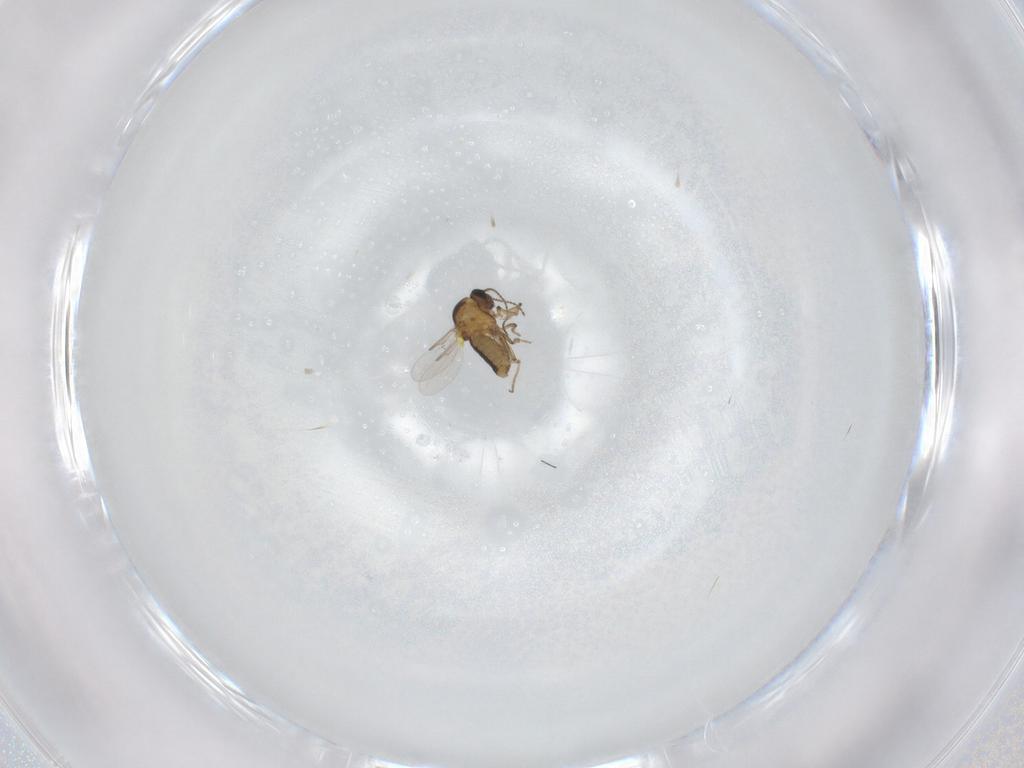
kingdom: Animalia
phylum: Arthropoda
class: Insecta
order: Diptera
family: Ceratopogonidae
